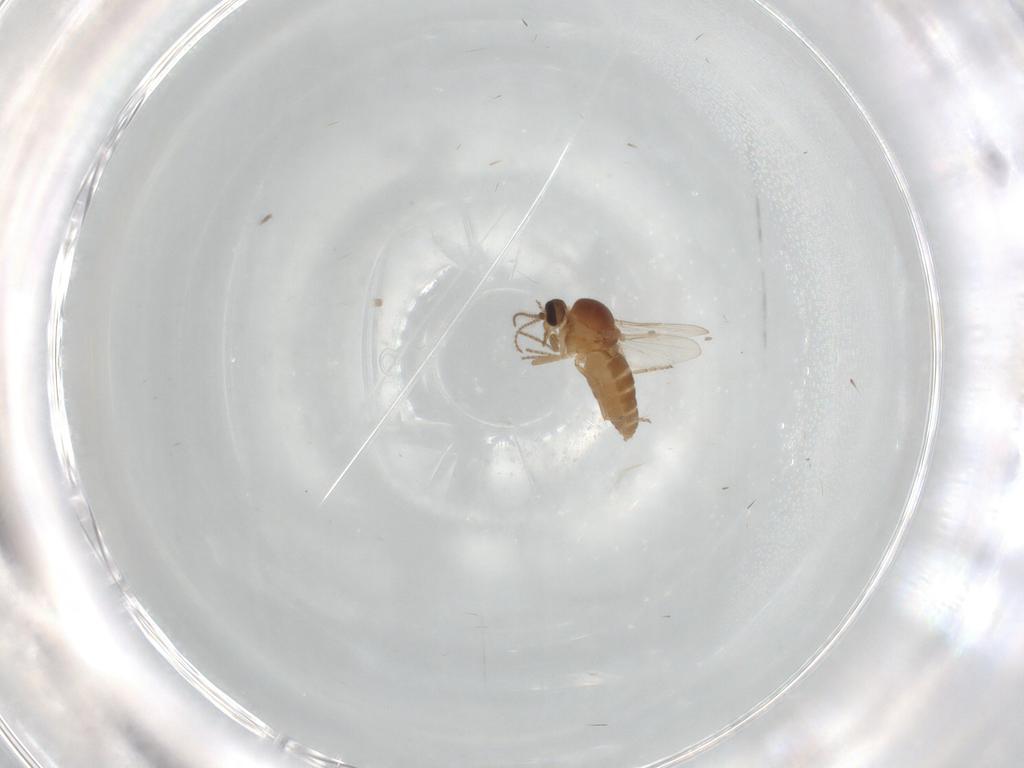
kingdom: Animalia
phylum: Arthropoda
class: Insecta
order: Diptera
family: Ceratopogonidae
